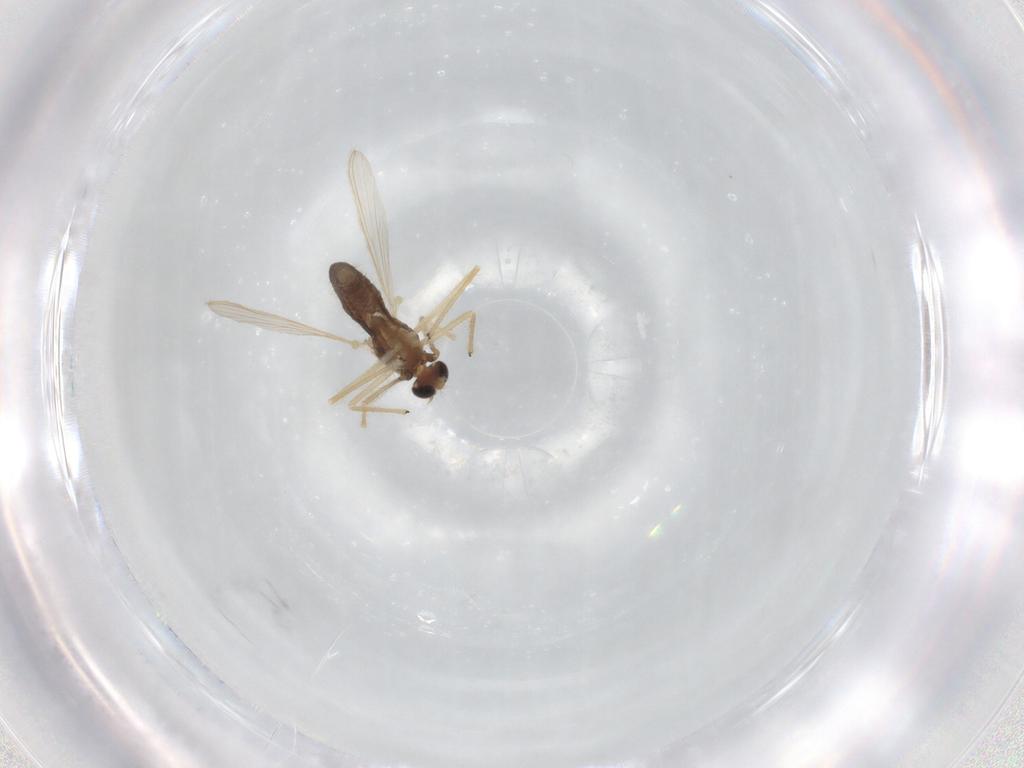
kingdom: Animalia
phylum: Arthropoda
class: Insecta
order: Diptera
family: Chironomidae
